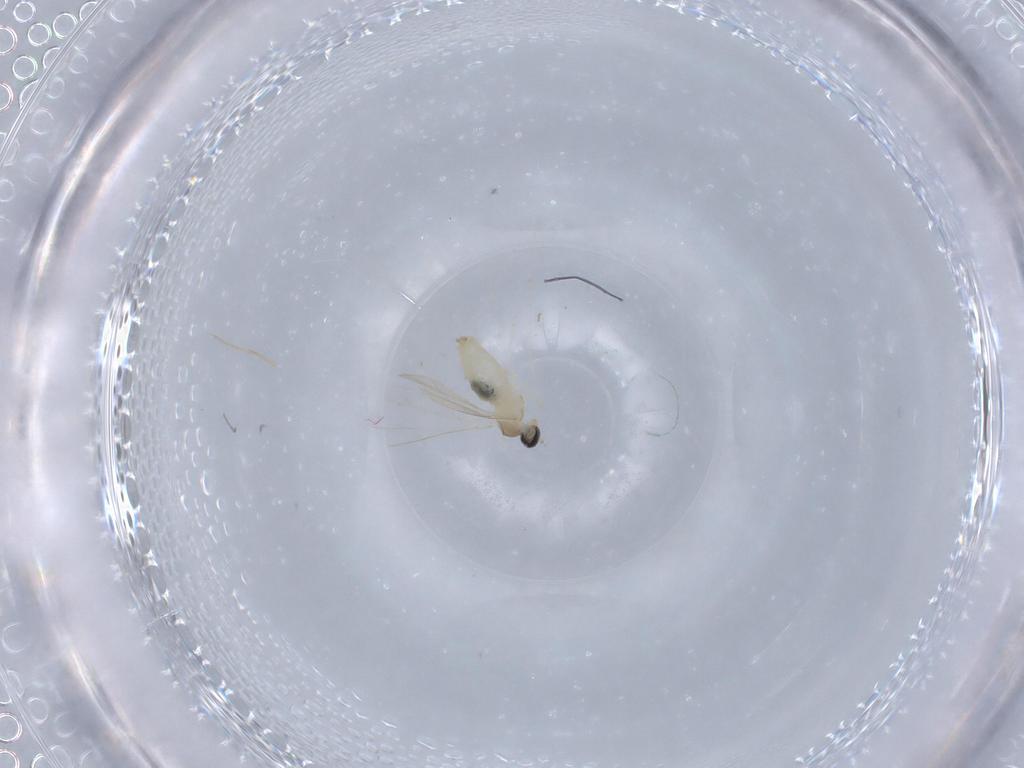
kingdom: Animalia
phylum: Arthropoda
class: Insecta
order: Diptera
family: Cecidomyiidae
